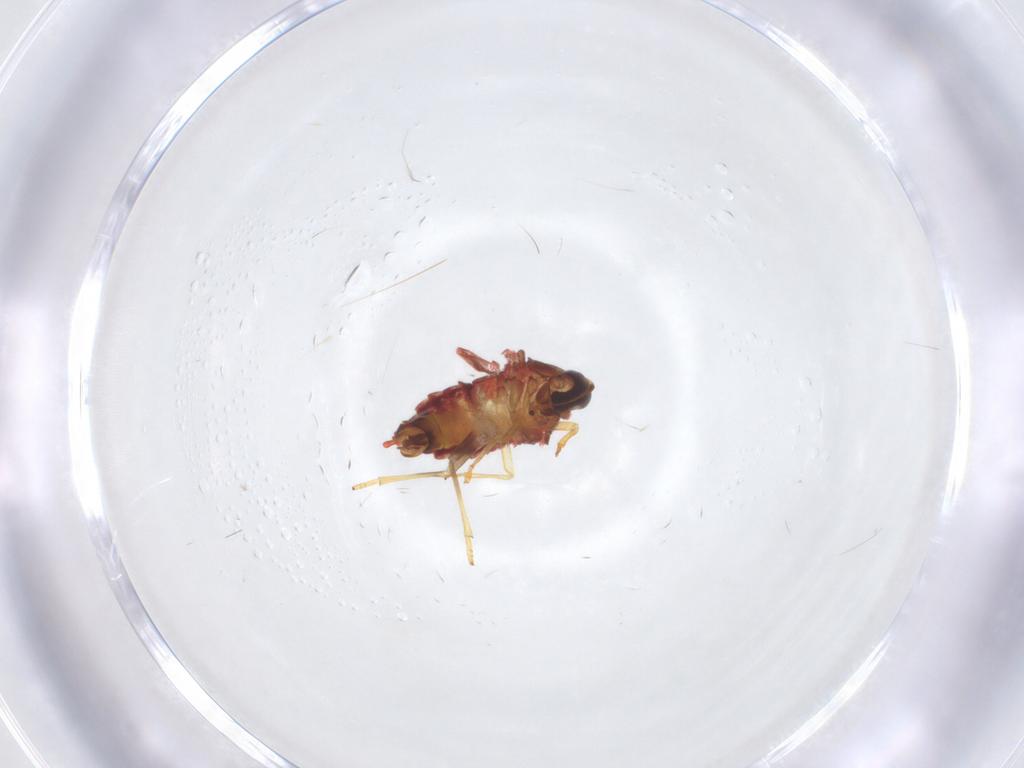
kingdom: Animalia
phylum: Arthropoda
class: Insecta
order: Hemiptera
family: Derbidae
